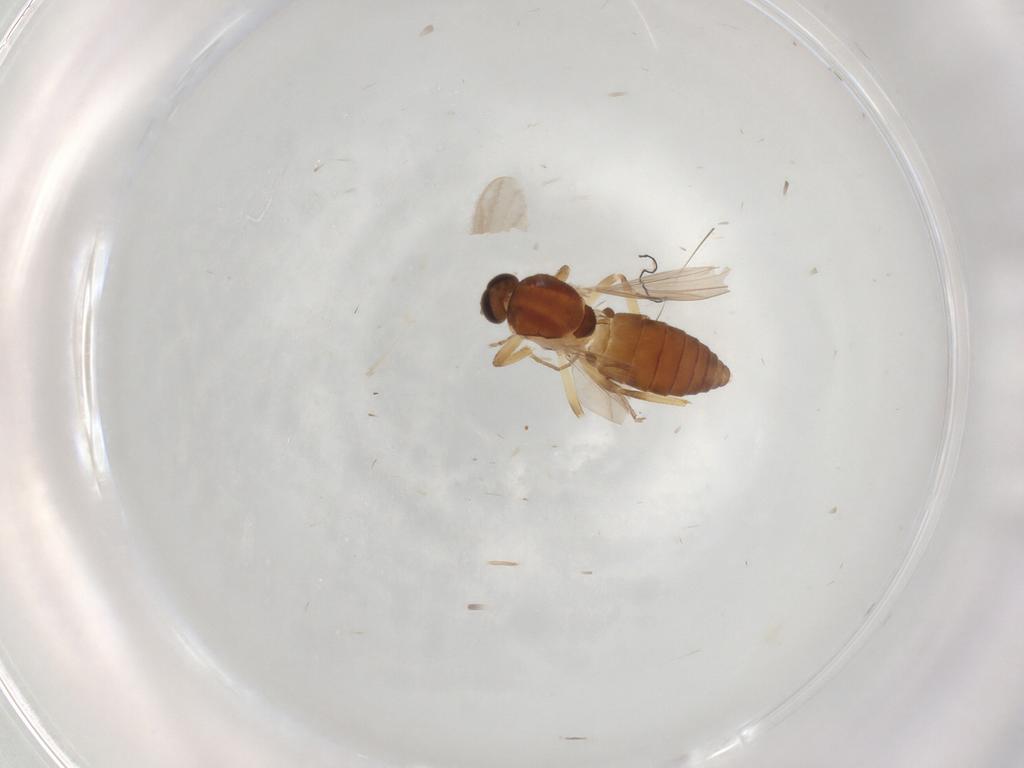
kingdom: Animalia
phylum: Arthropoda
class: Insecta
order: Diptera
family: Ceratopogonidae
